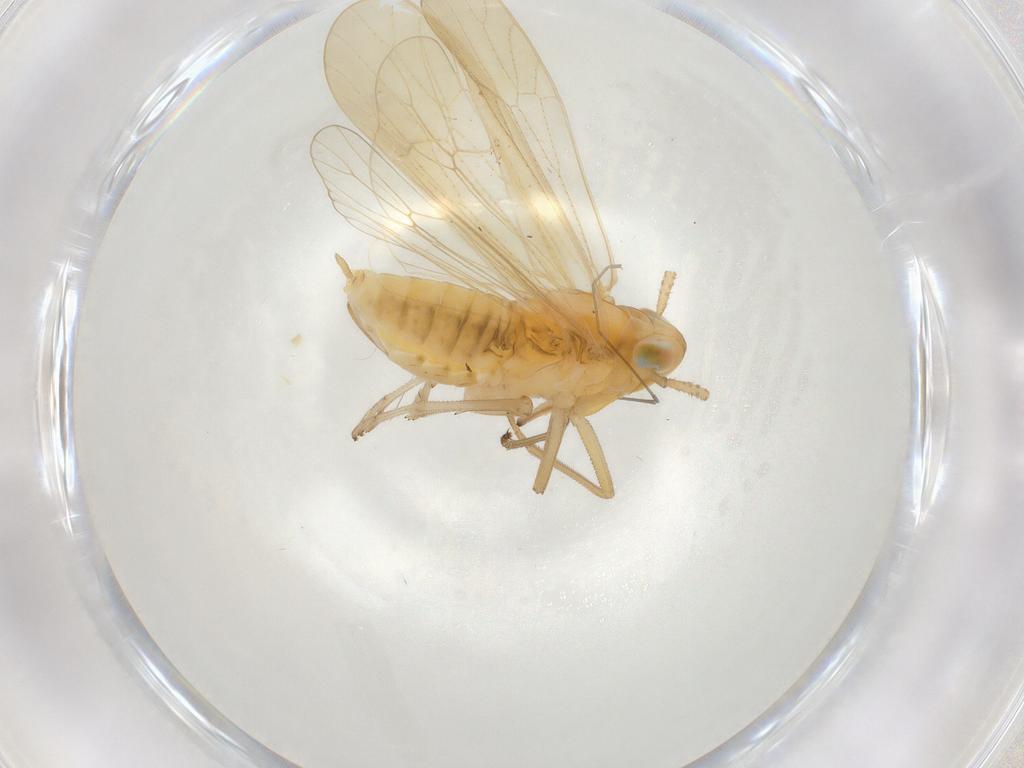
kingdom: Animalia
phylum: Arthropoda
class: Insecta
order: Hemiptera
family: Delphacidae
